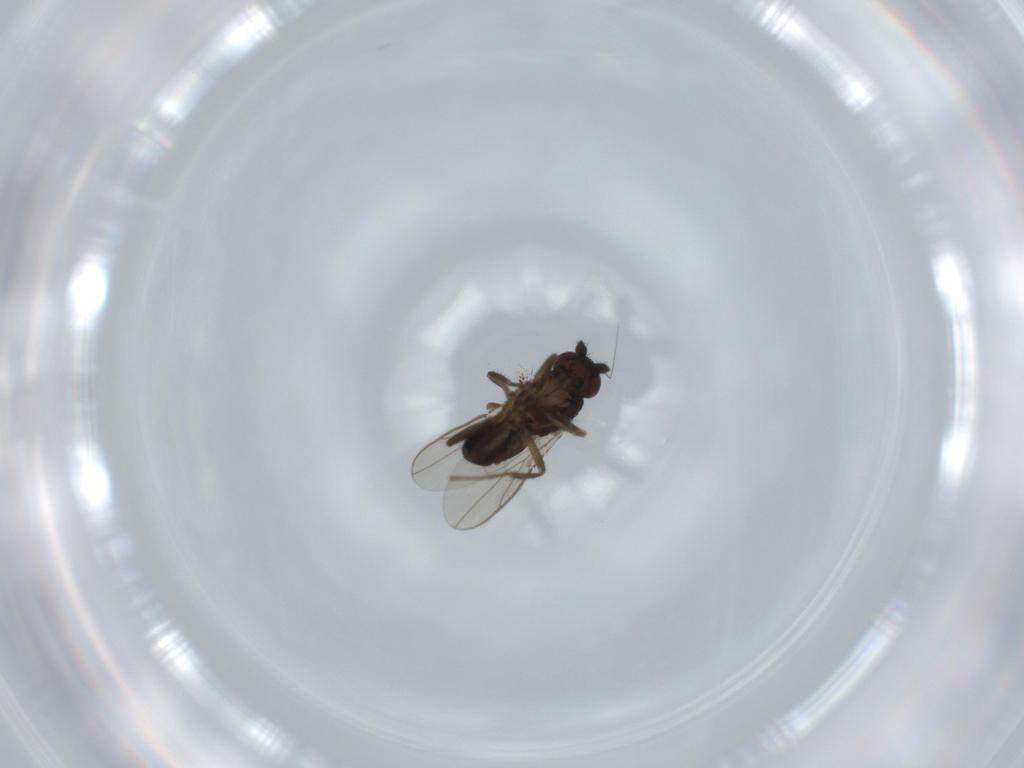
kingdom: Animalia
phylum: Arthropoda
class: Insecta
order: Diptera
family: Sphaeroceridae
